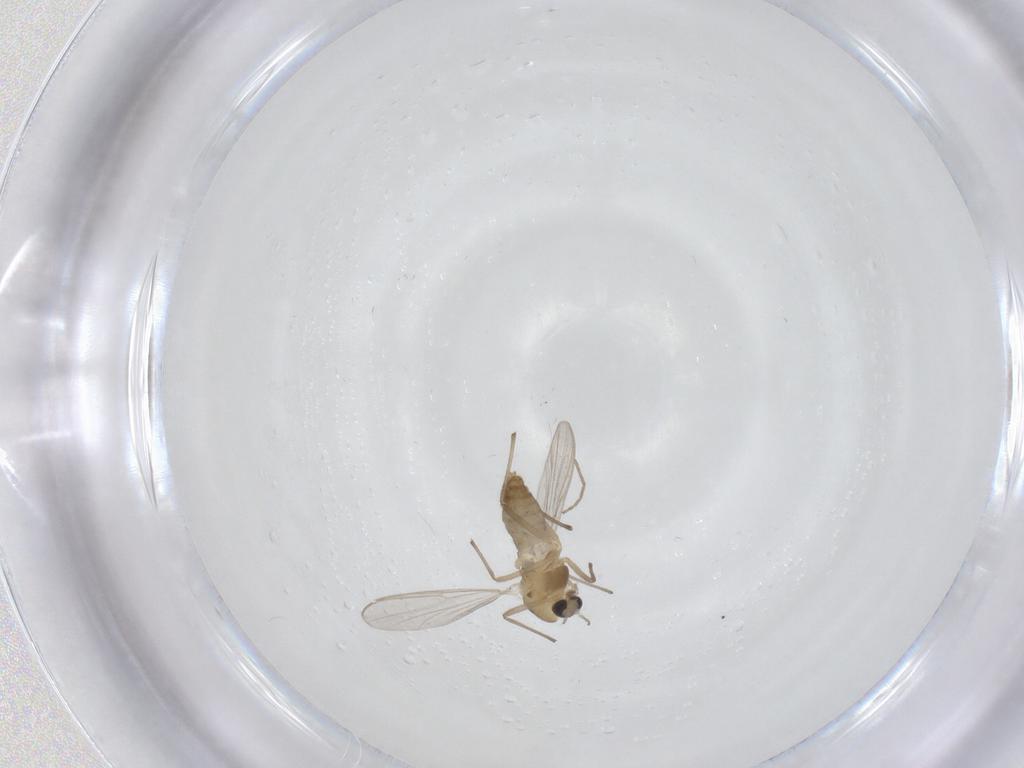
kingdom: Animalia
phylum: Arthropoda
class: Insecta
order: Diptera
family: Chironomidae
